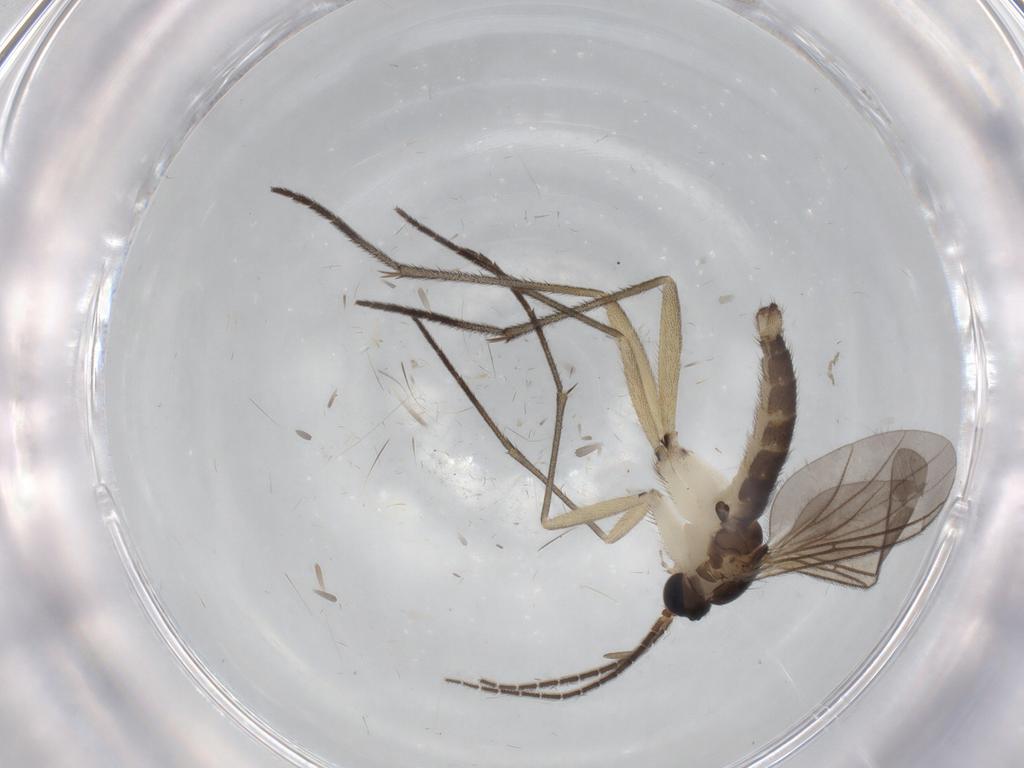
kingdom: Animalia
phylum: Arthropoda
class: Insecta
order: Diptera
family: Sciaridae
